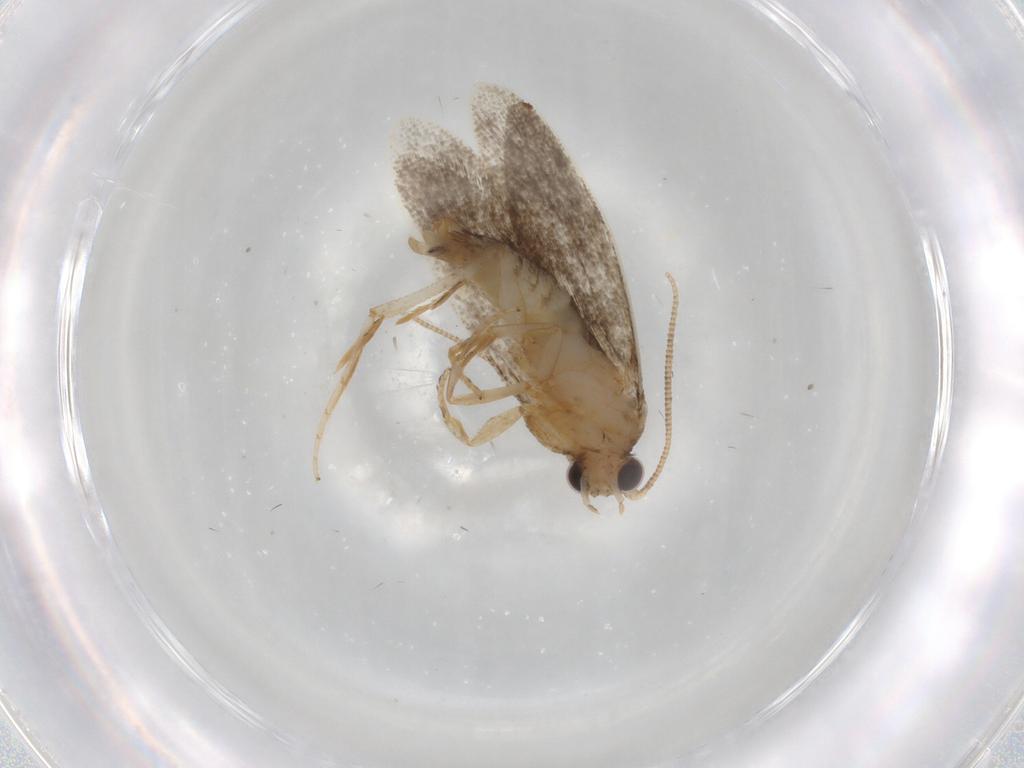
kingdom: Animalia
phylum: Arthropoda
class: Insecta
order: Lepidoptera
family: Tineidae
